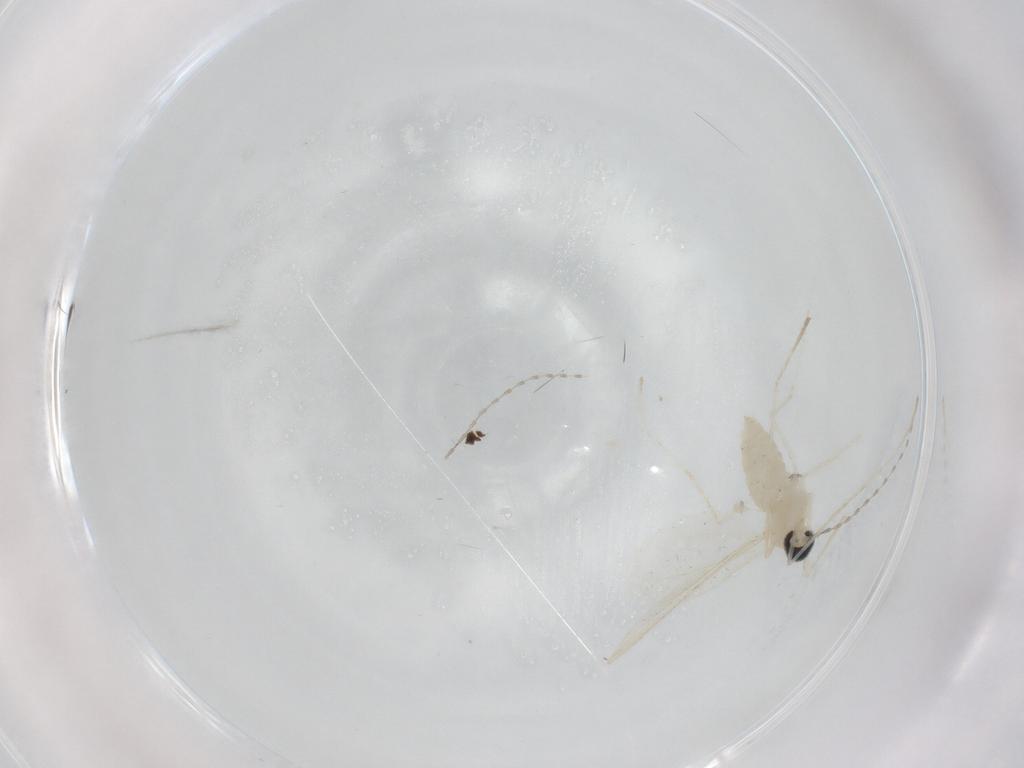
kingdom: Animalia
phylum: Arthropoda
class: Insecta
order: Diptera
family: Cecidomyiidae
